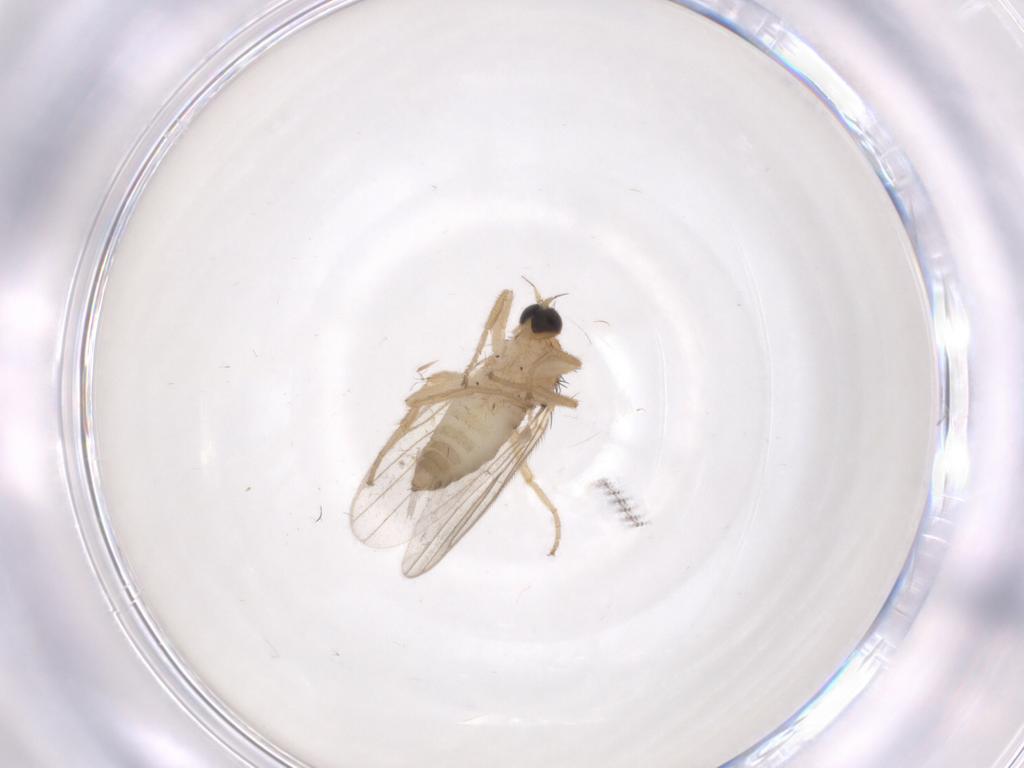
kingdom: Animalia
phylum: Arthropoda
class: Insecta
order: Diptera
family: Hybotidae
